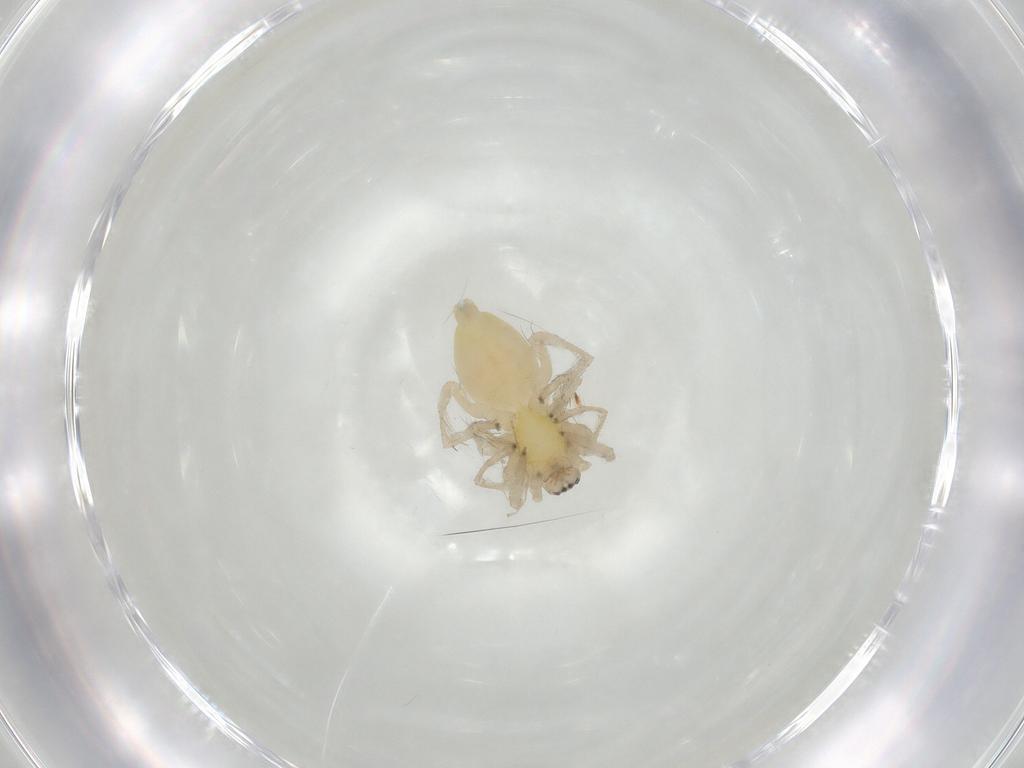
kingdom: Animalia
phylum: Arthropoda
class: Insecta
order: Diptera
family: Chironomidae
